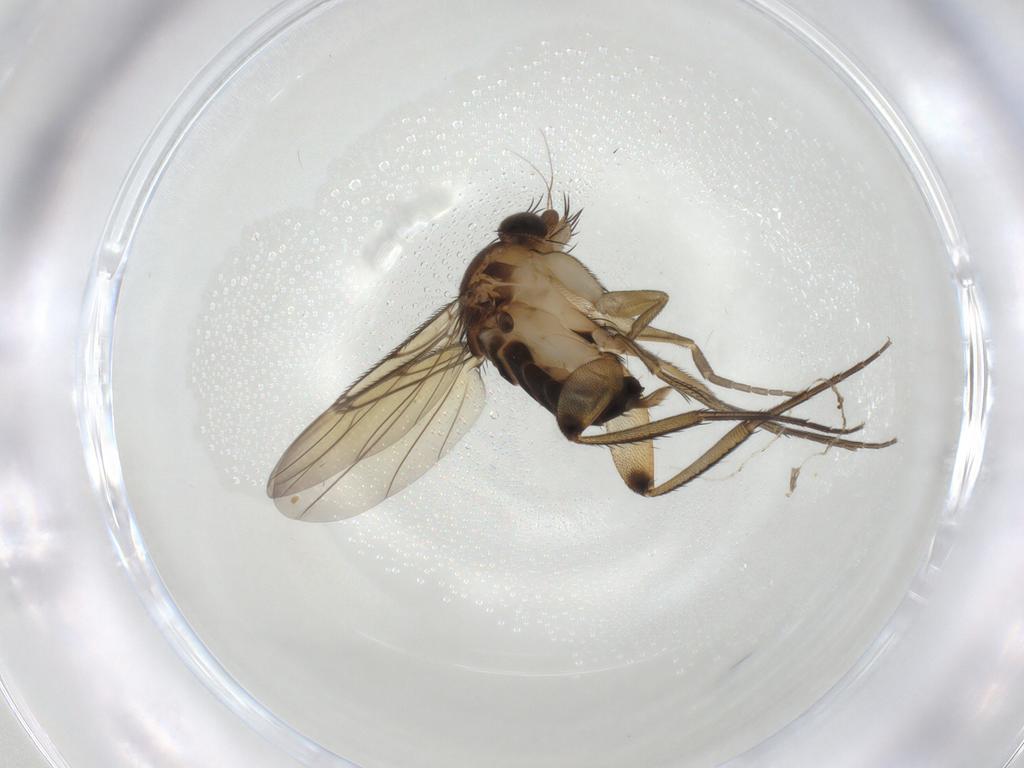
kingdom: Animalia
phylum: Arthropoda
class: Insecta
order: Diptera
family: Phoridae
